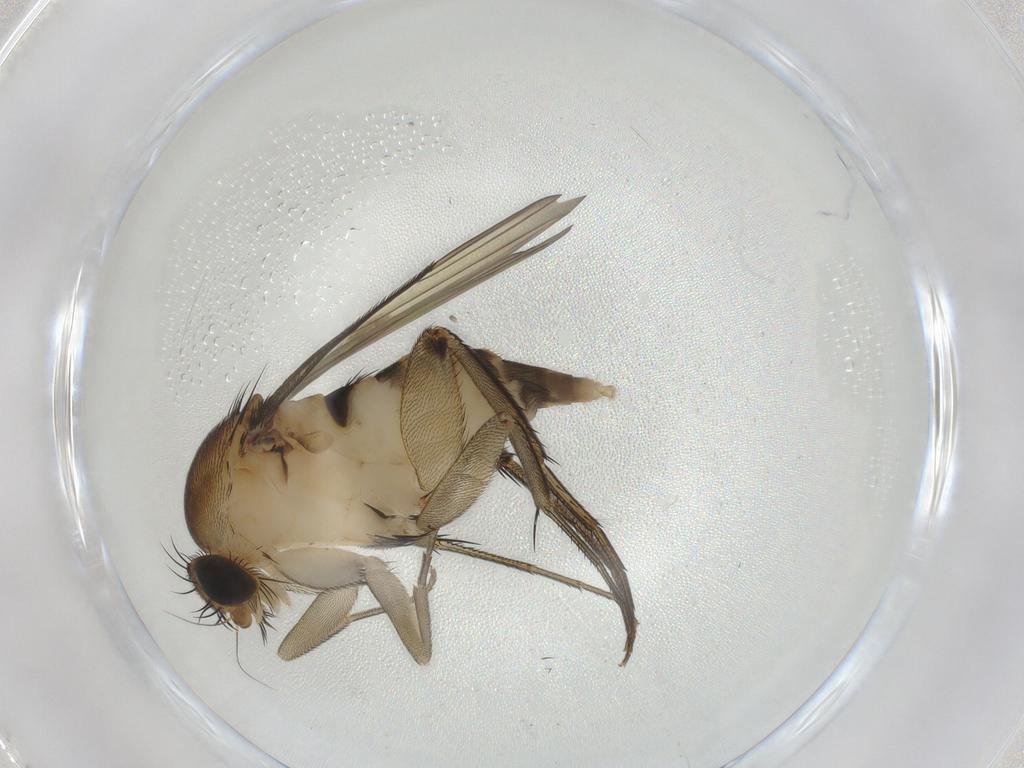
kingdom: Animalia
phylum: Arthropoda
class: Insecta
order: Diptera
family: Phoridae
